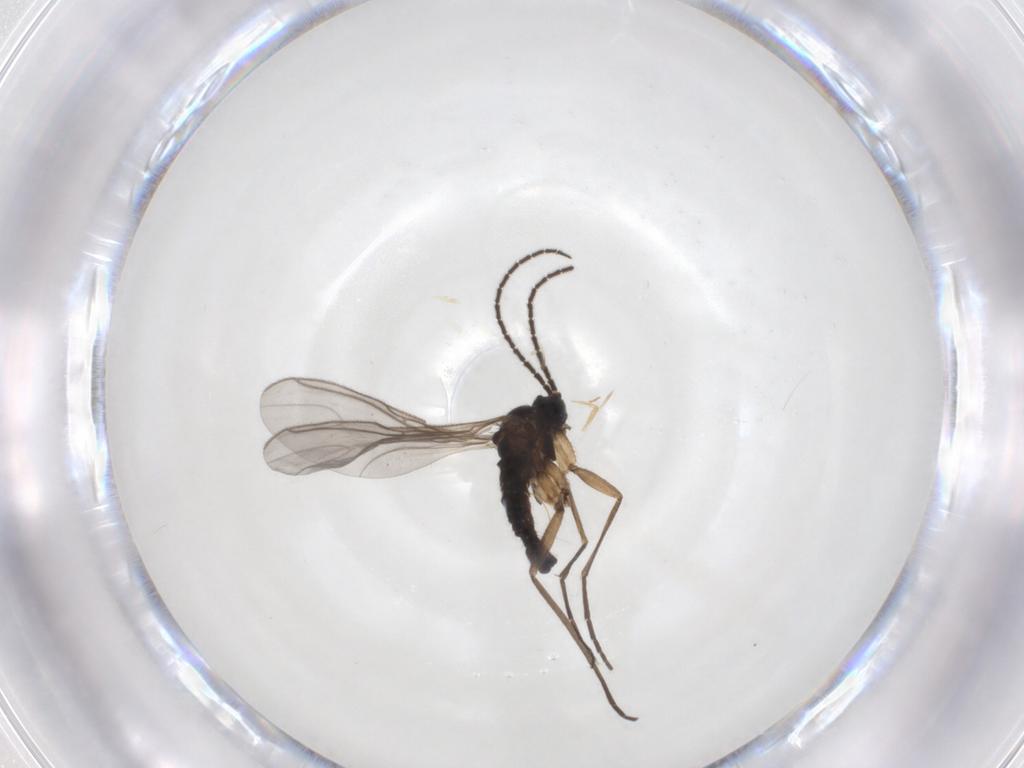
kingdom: Animalia
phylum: Arthropoda
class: Insecta
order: Diptera
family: Sciaridae
